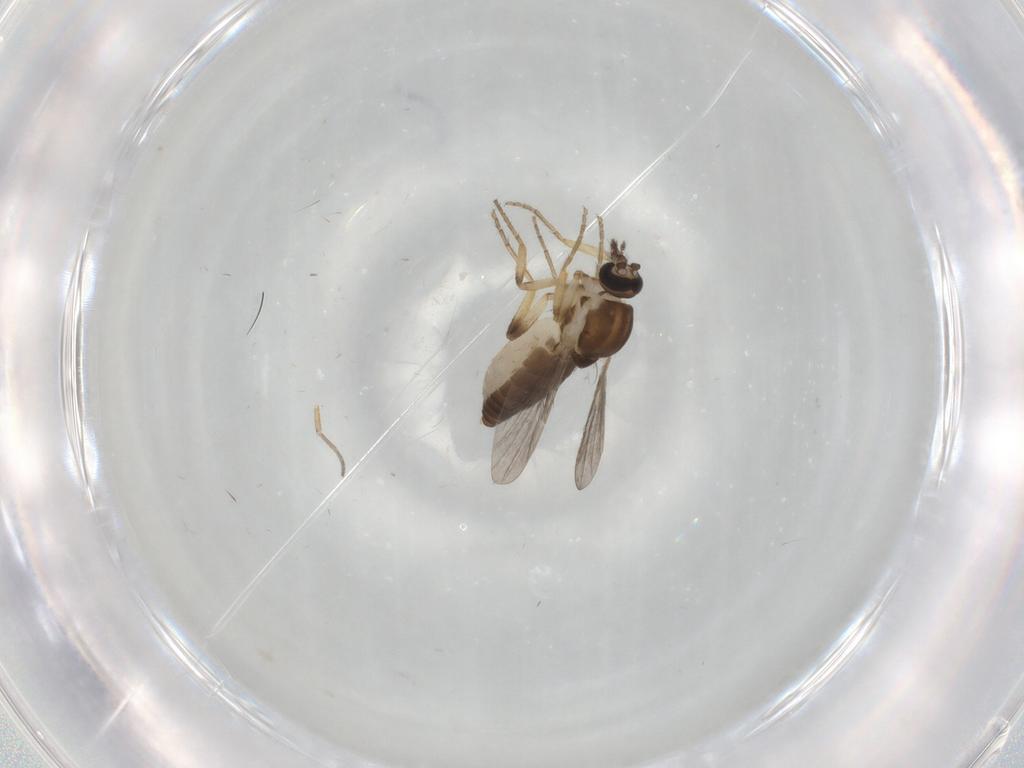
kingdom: Animalia
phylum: Arthropoda
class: Insecta
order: Diptera
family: Ceratopogonidae
